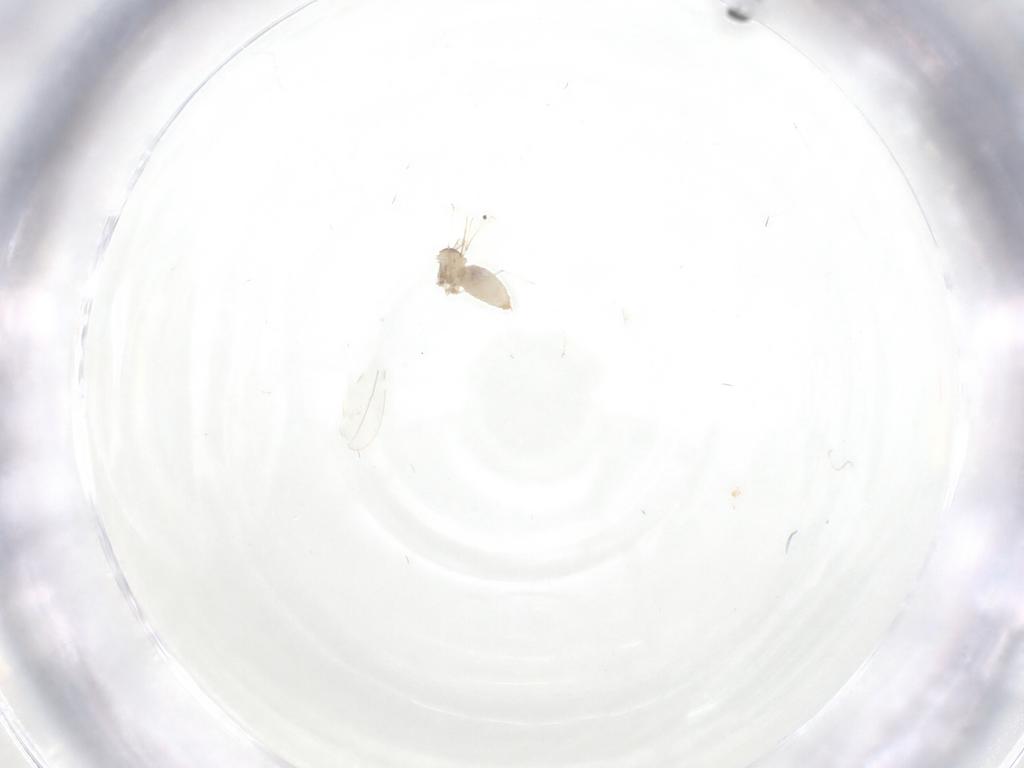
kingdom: Animalia
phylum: Arthropoda
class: Insecta
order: Diptera
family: Cecidomyiidae
